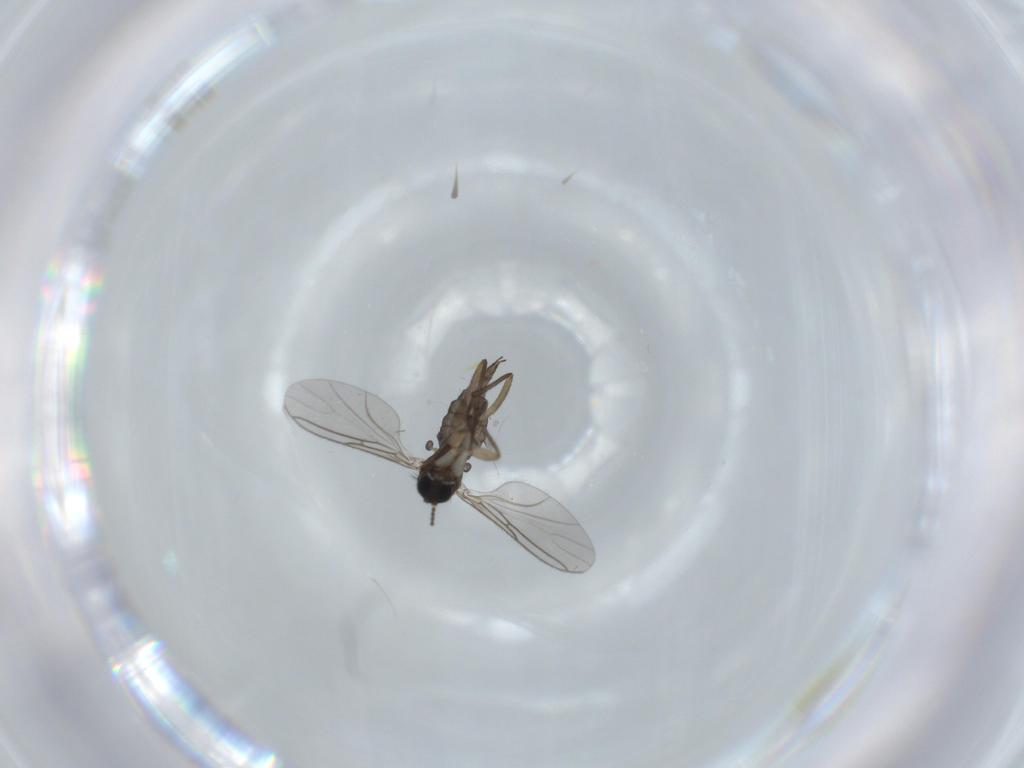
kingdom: Animalia
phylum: Arthropoda
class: Insecta
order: Diptera
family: Sciaridae
